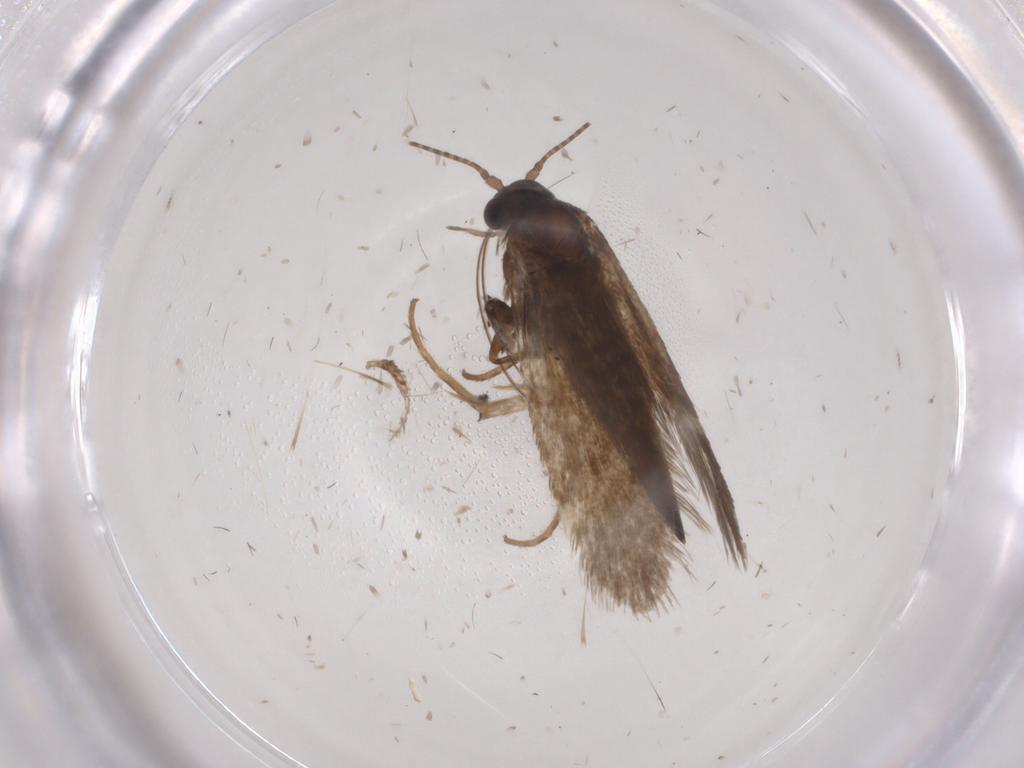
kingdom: Animalia
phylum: Arthropoda
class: Insecta
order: Lepidoptera
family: Adelidae
